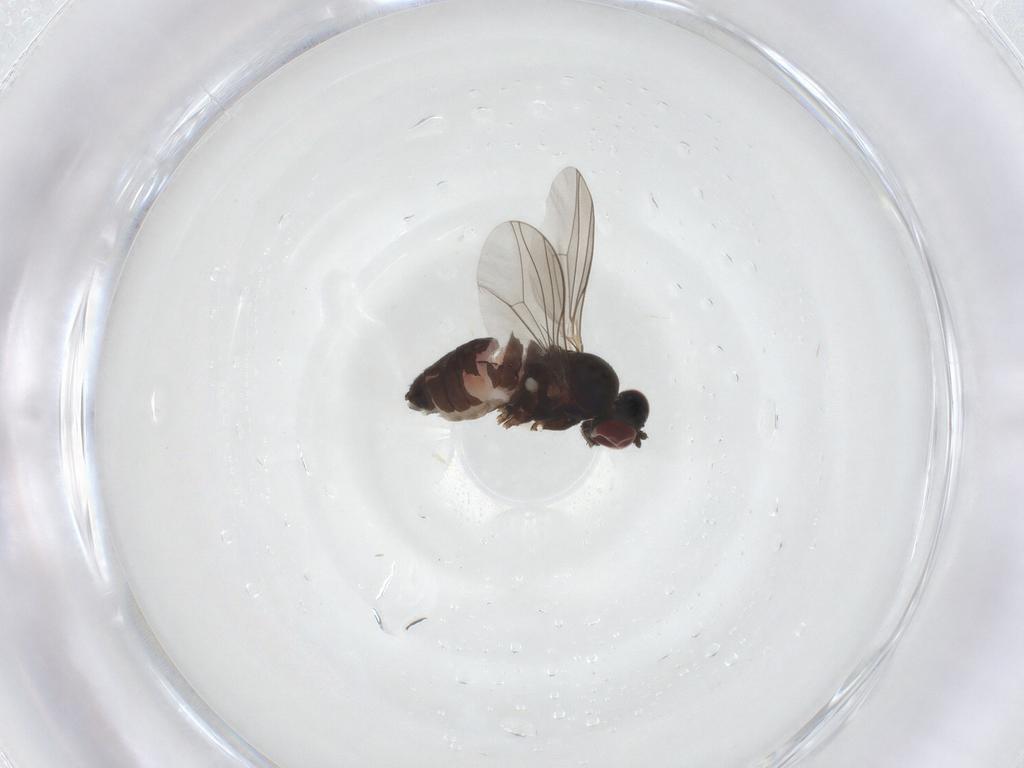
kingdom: Animalia
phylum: Arthropoda
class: Insecta
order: Diptera
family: Dolichopodidae
